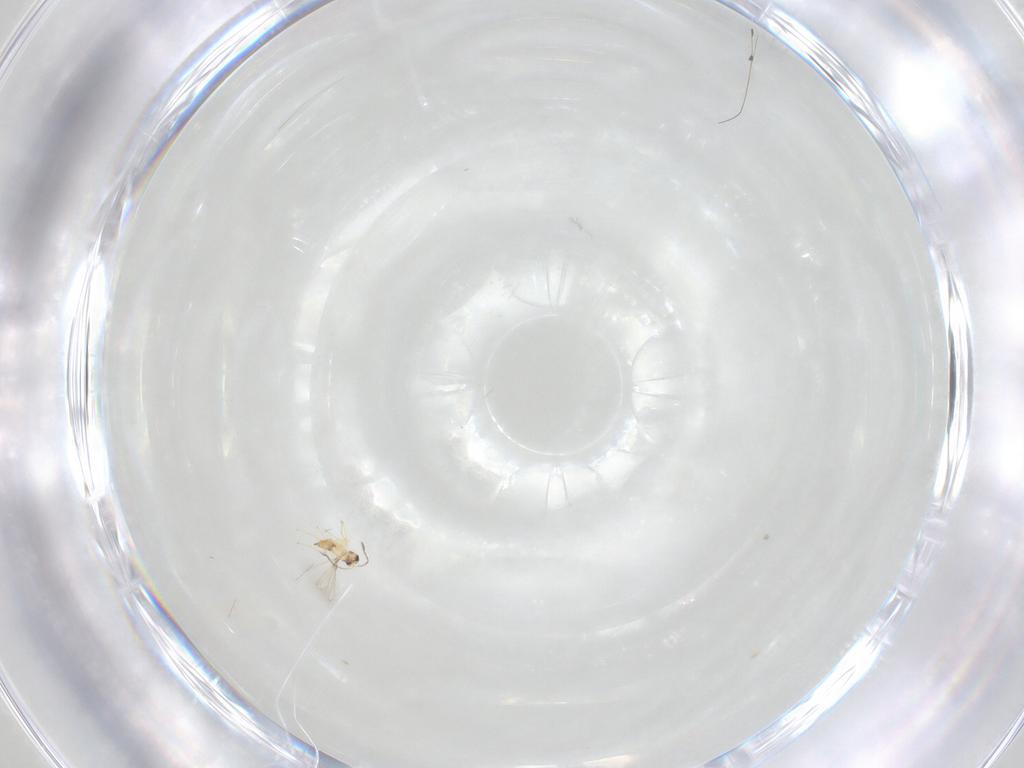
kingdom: Animalia
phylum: Arthropoda
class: Insecta
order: Hymenoptera
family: Mymaridae
